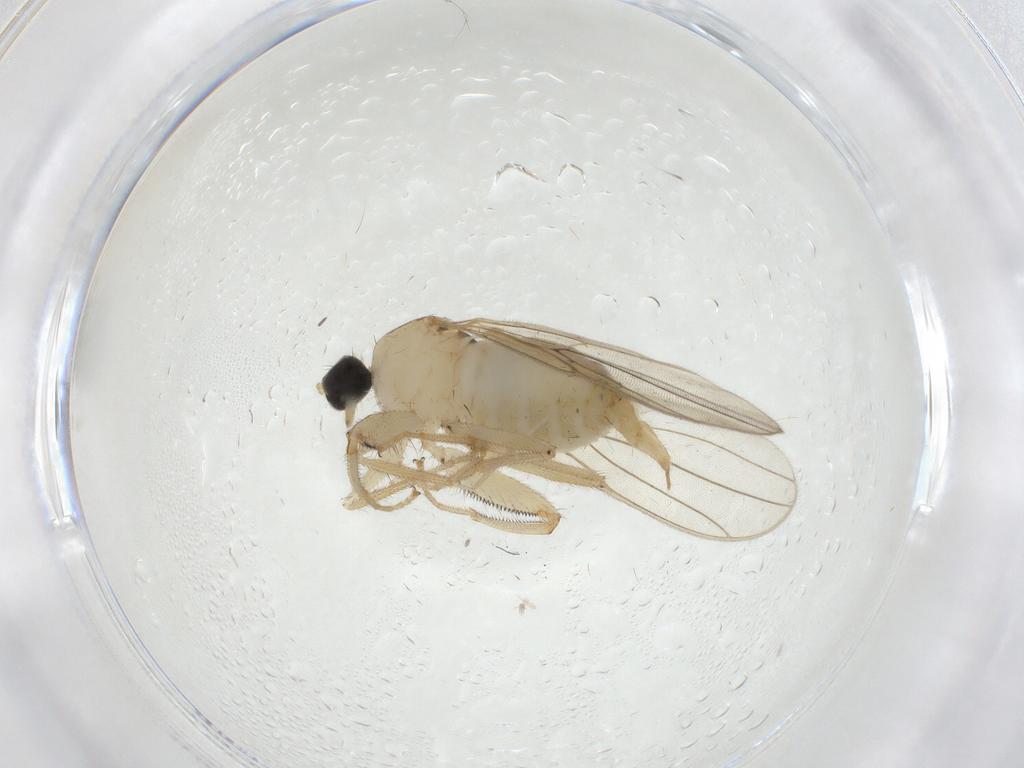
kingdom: Animalia
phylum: Arthropoda
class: Insecta
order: Diptera
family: Hybotidae
